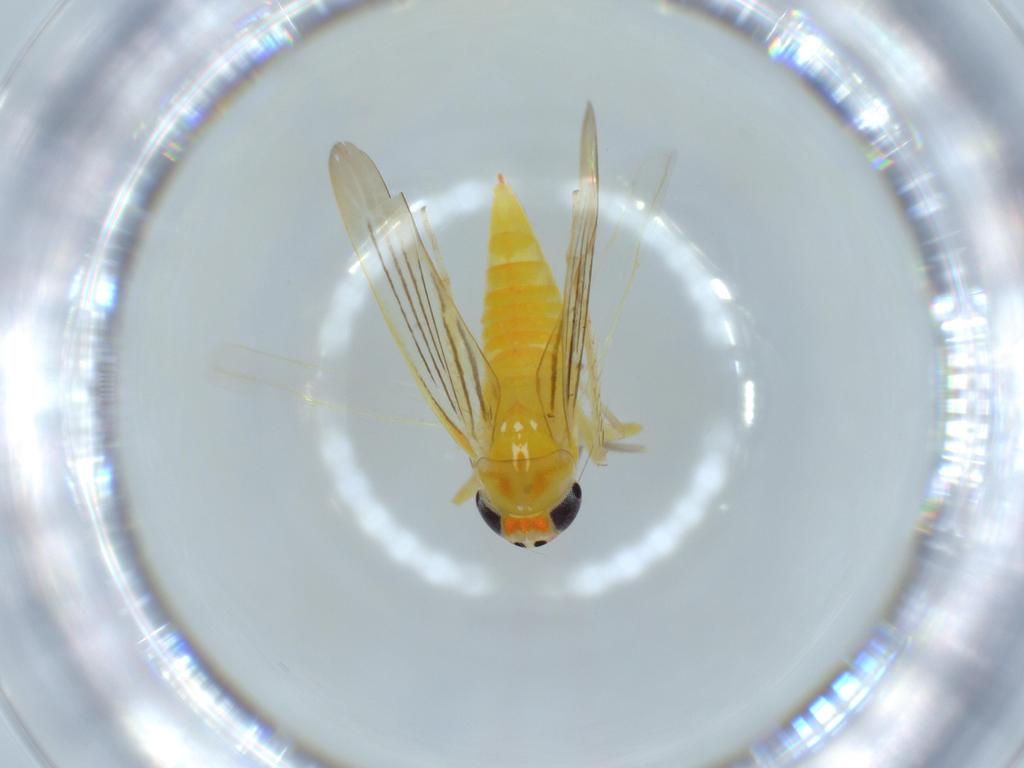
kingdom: Animalia
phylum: Arthropoda
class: Insecta
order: Hemiptera
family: Cicadellidae
